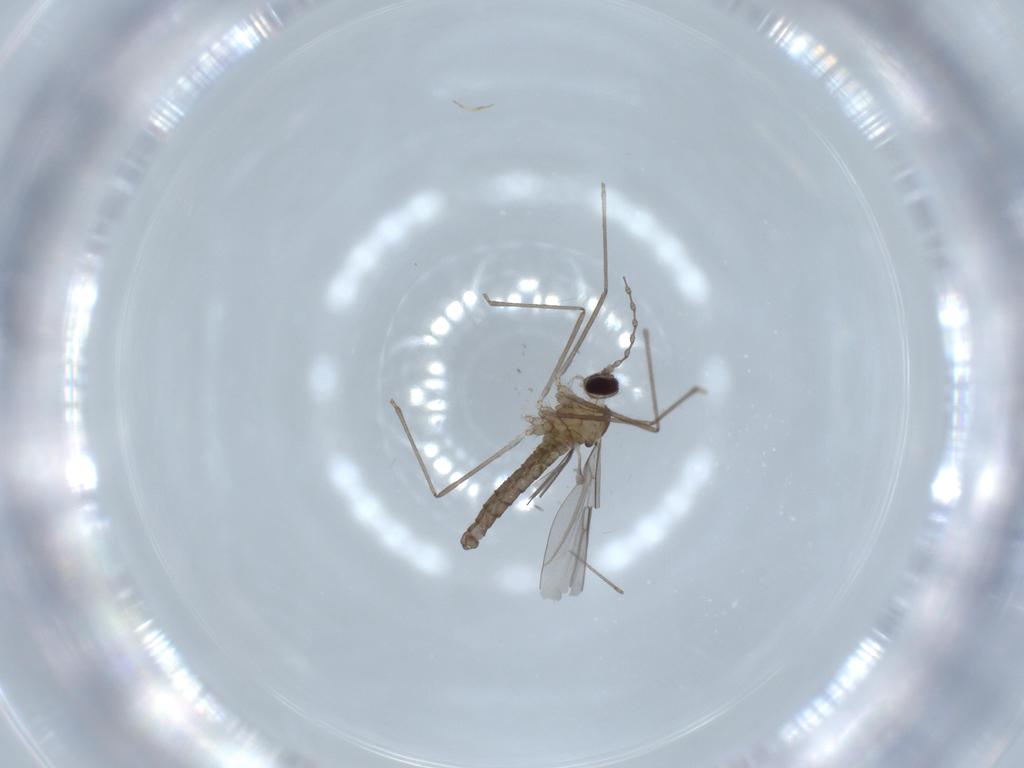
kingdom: Animalia
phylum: Arthropoda
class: Insecta
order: Diptera
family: Cecidomyiidae
